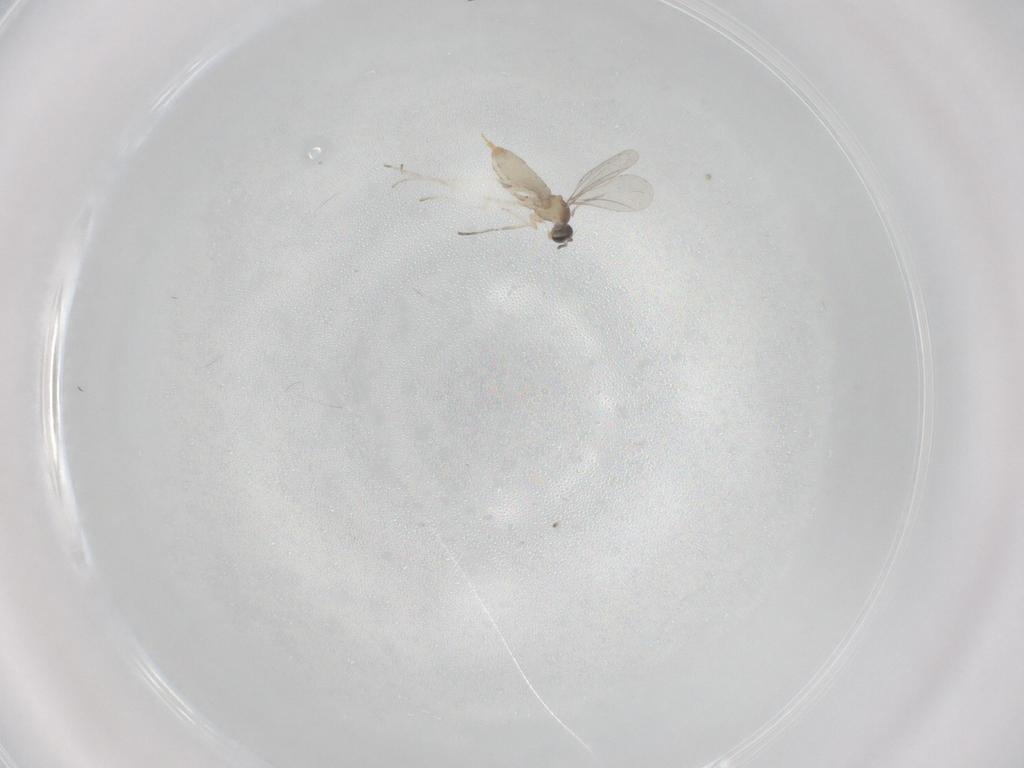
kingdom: Animalia
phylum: Arthropoda
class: Insecta
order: Diptera
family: Cecidomyiidae
